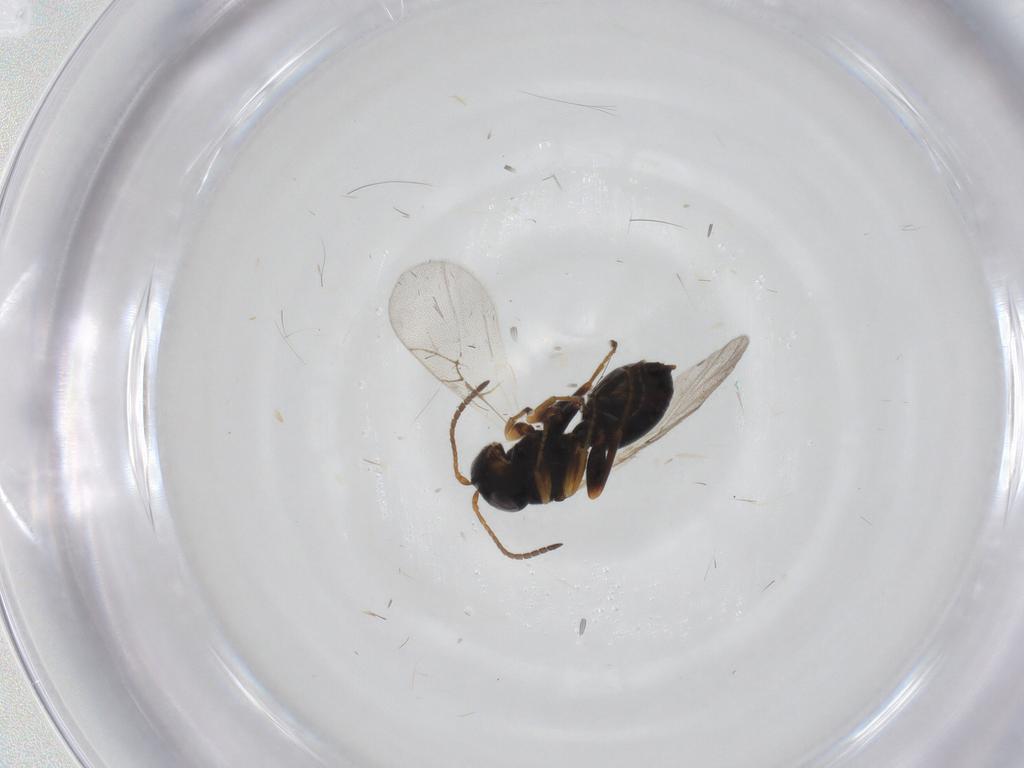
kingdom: Animalia
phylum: Arthropoda
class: Insecta
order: Hymenoptera
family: Cynipidae
